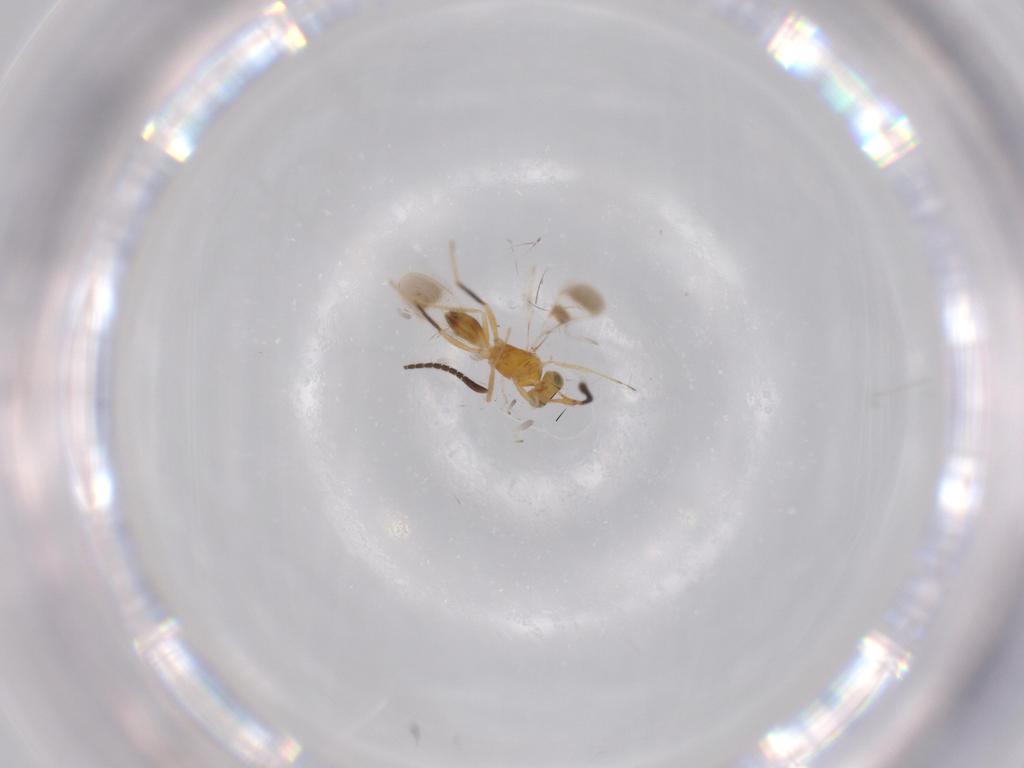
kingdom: Animalia
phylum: Arthropoda
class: Insecta
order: Hymenoptera
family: Mymaridae
